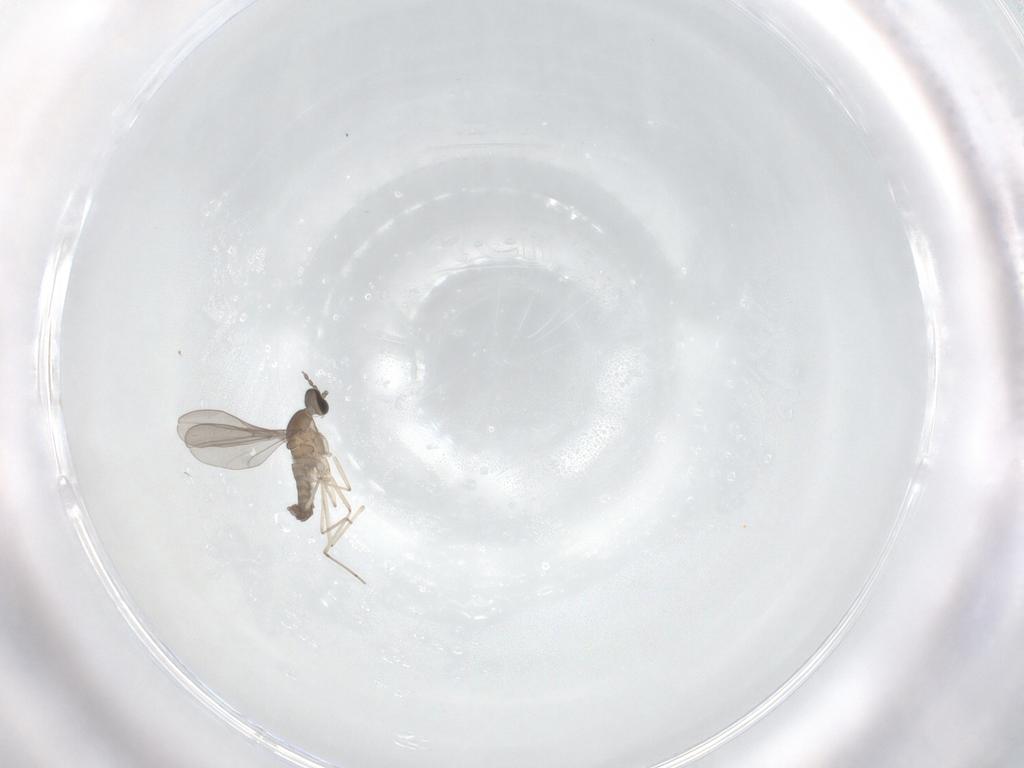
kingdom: Animalia
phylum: Arthropoda
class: Insecta
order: Diptera
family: Cecidomyiidae
